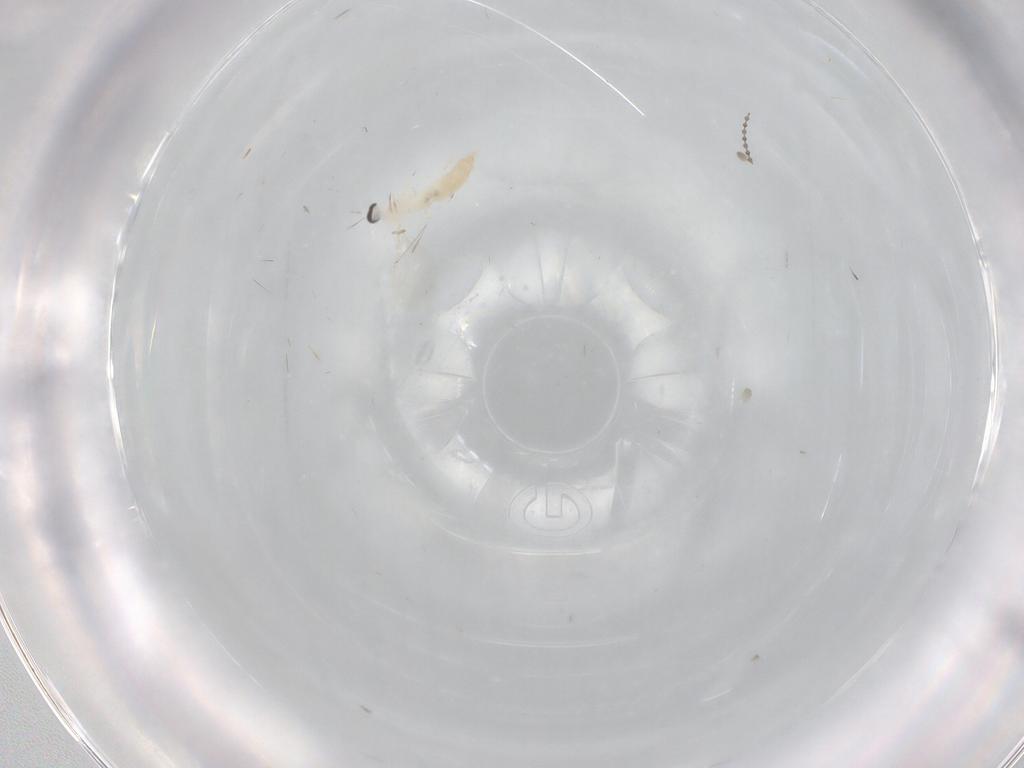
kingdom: Animalia
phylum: Arthropoda
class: Insecta
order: Diptera
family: Cecidomyiidae
